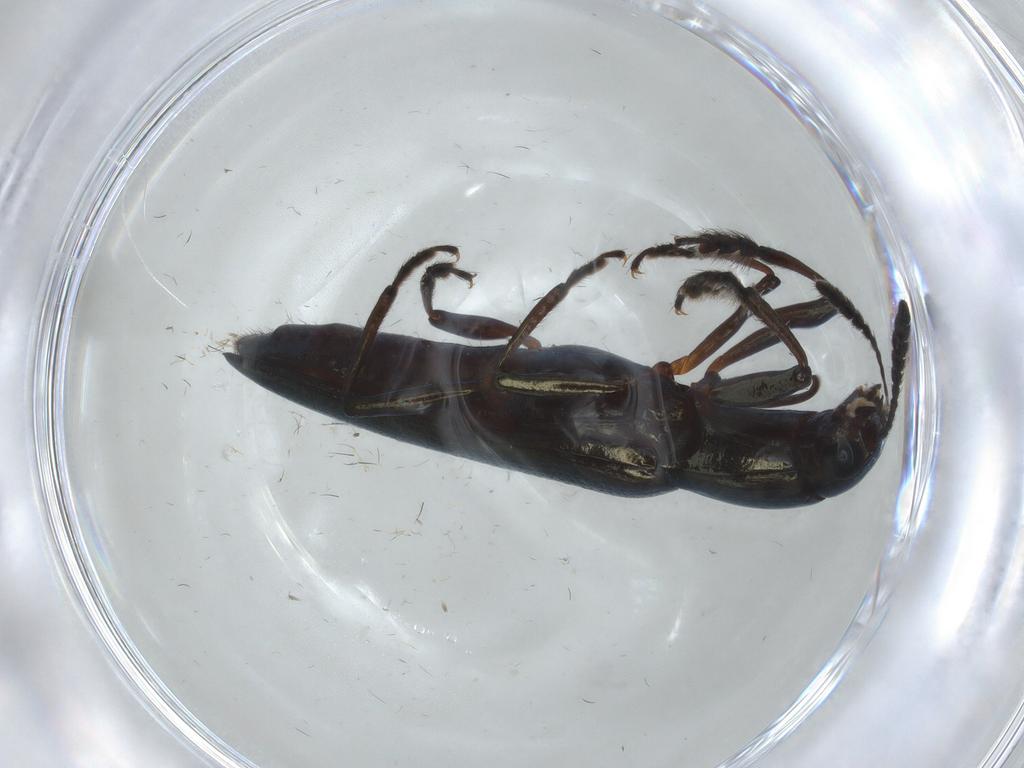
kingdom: Animalia
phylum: Arthropoda
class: Insecta
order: Coleoptera
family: Erotylidae
